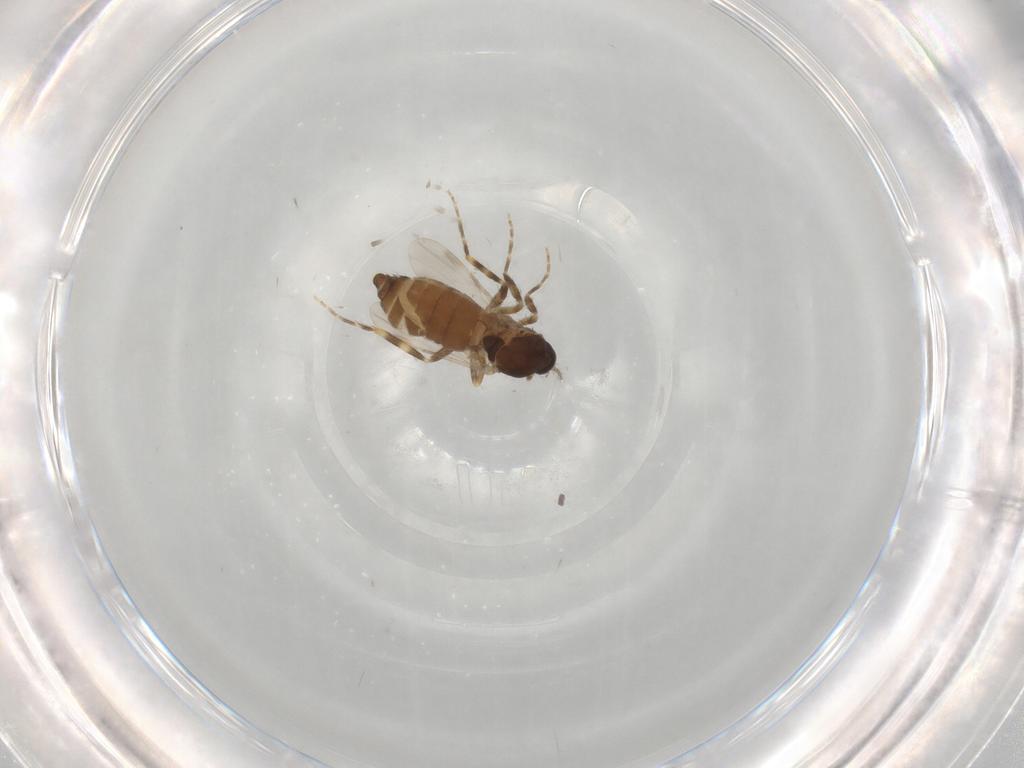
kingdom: Animalia
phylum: Arthropoda
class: Insecta
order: Diptera
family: Ceratopogonidae
